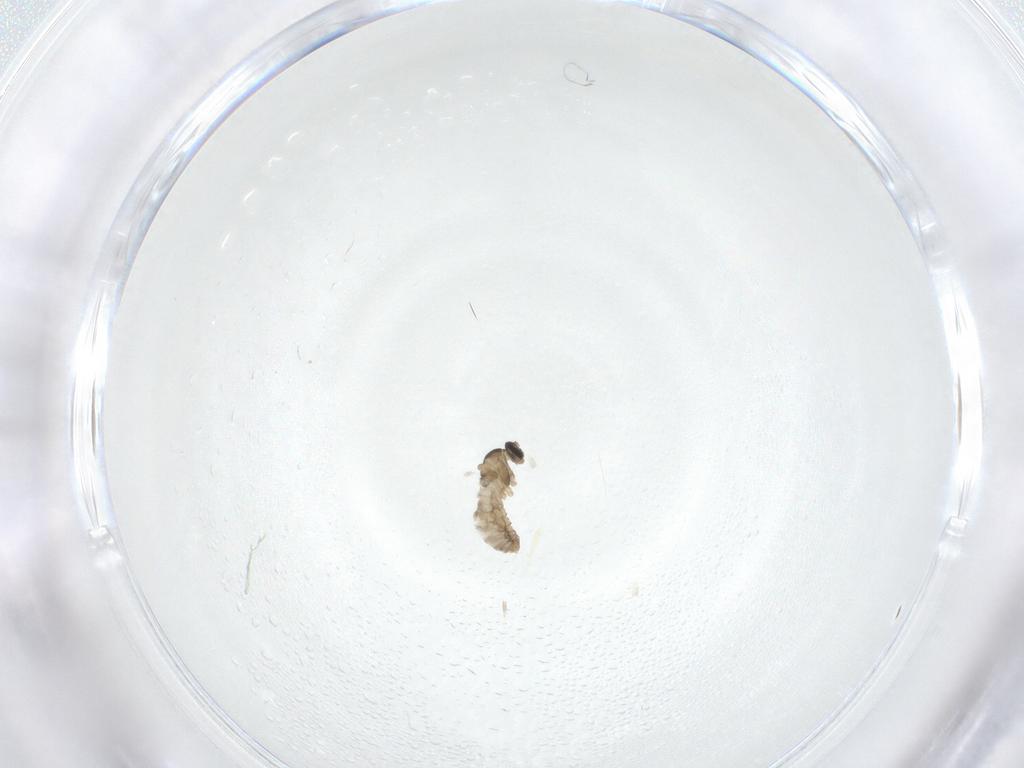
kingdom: Animalia
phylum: Arthropoda
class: Insecta
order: Diptera
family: Cecidomyiidae
